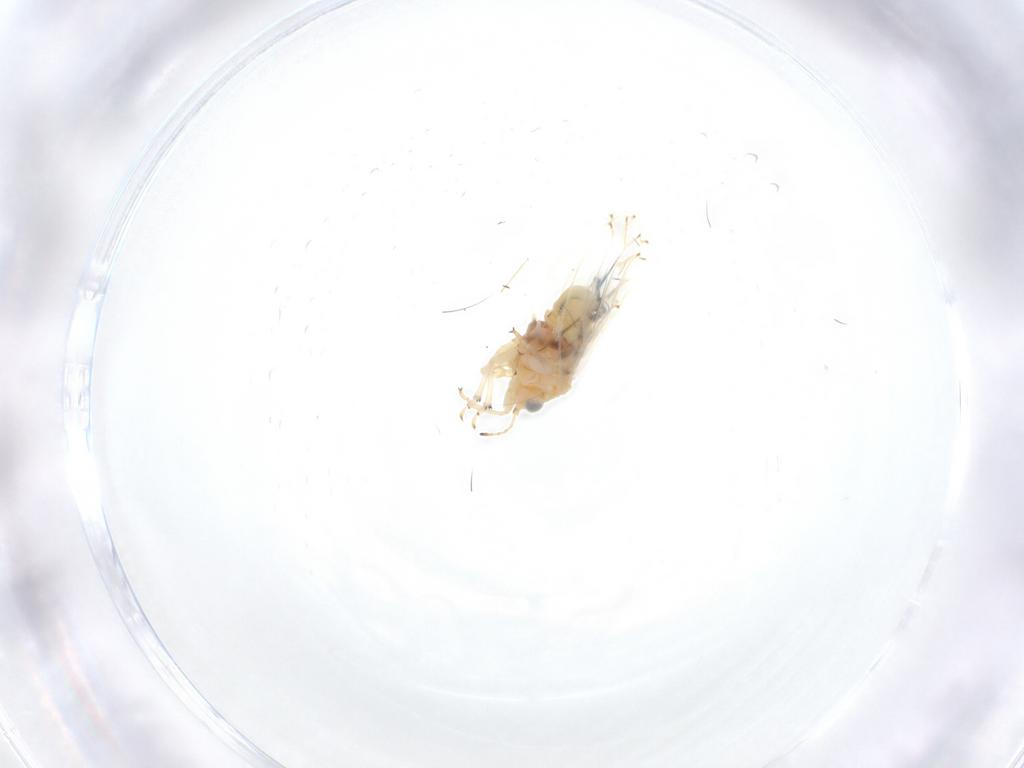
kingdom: Animalia
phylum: Arthropoda
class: Insecta
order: Hemiptera
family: Aphalaridae
